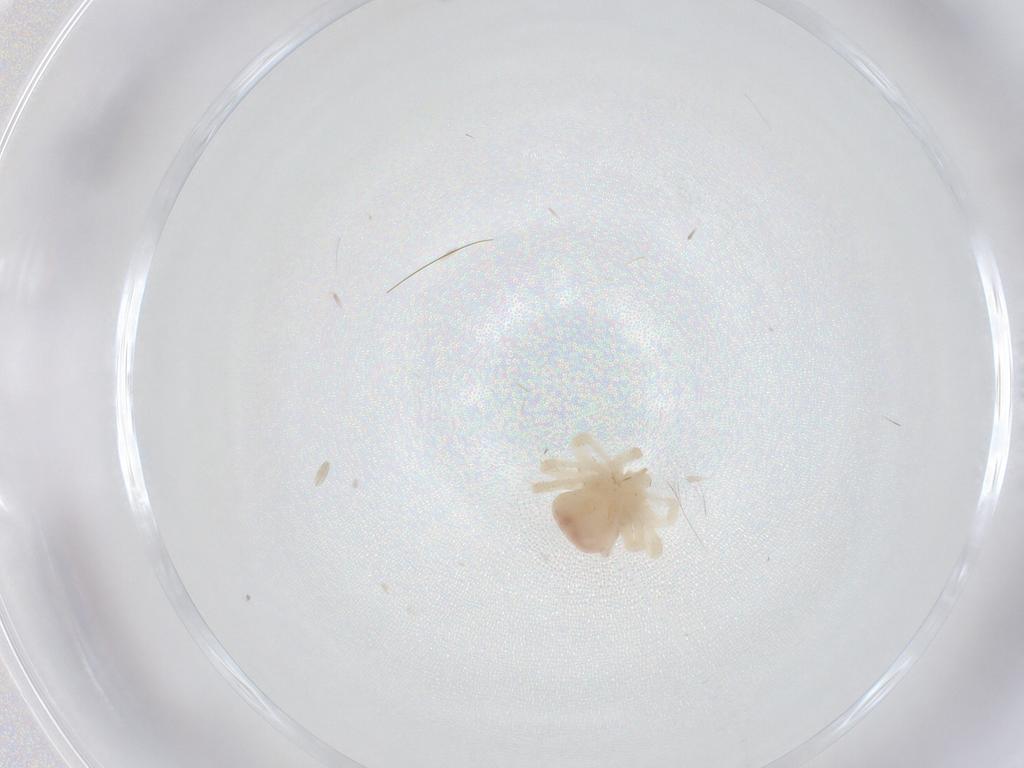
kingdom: Animalia
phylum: Arthropoda
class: Arachnida
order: Trombidiformes
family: Anystidae
